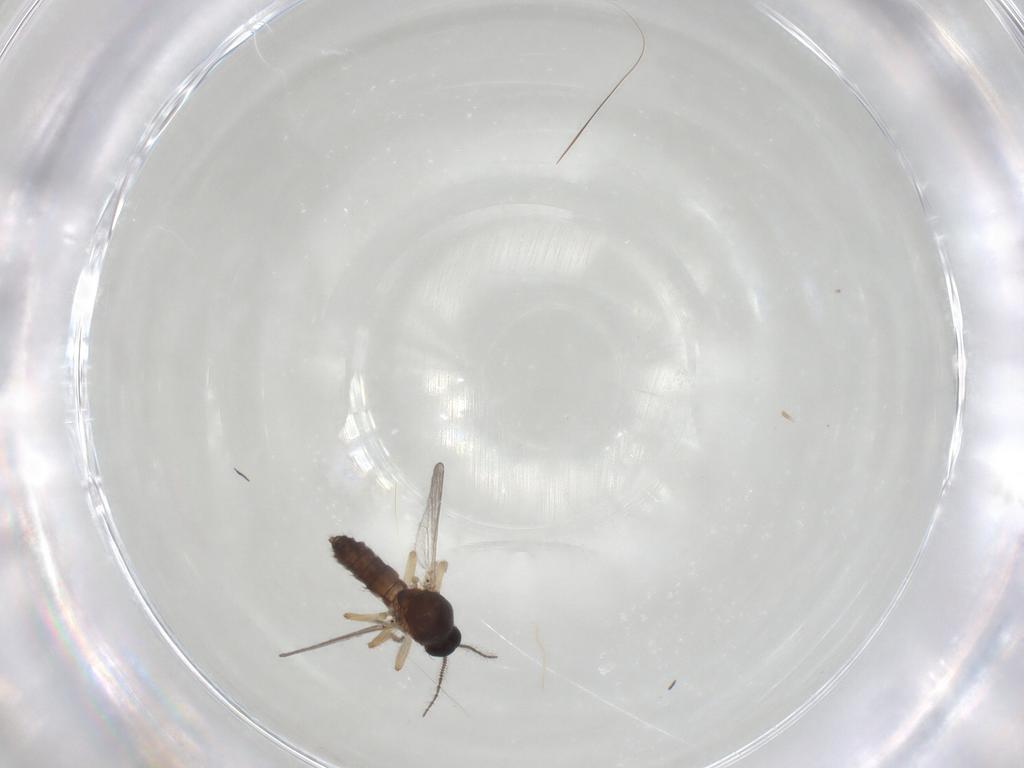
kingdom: Animalia
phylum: Arthropoda
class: Insecta
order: Diptera
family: Ceratopogonidae
